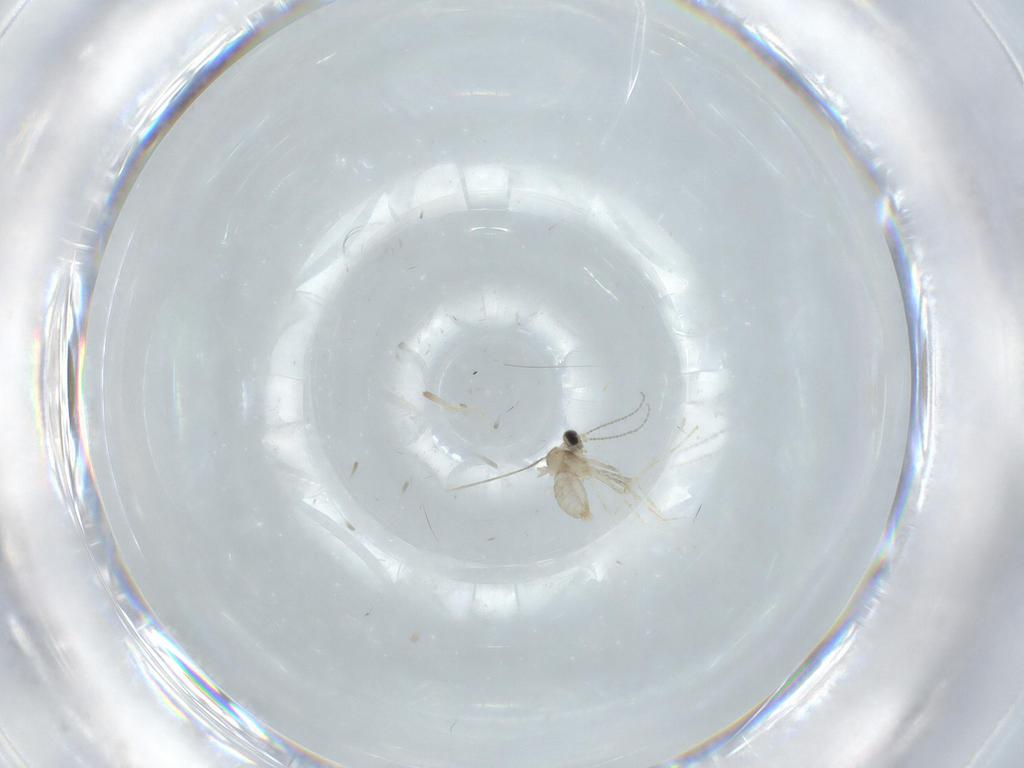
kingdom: Animalia
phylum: Arthropoda
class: Insecta
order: Diptera
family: Cecidomyiidae
